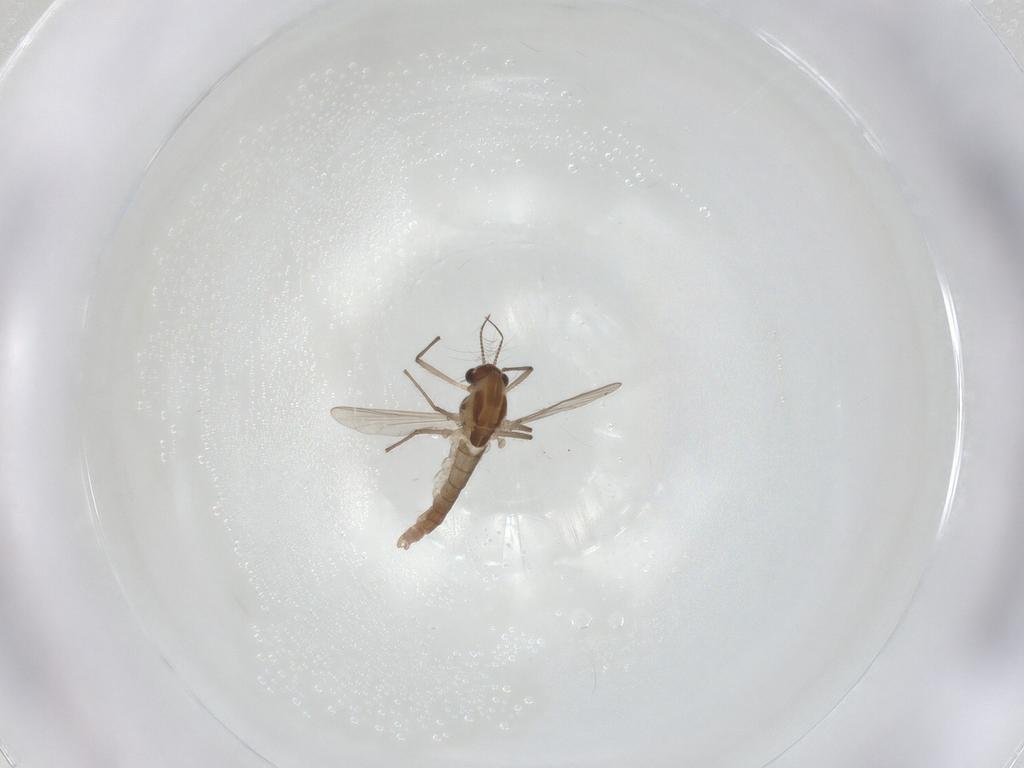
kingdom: Animalia
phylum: Arthropoda
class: Insecta
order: Diptera
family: Chironomidae
